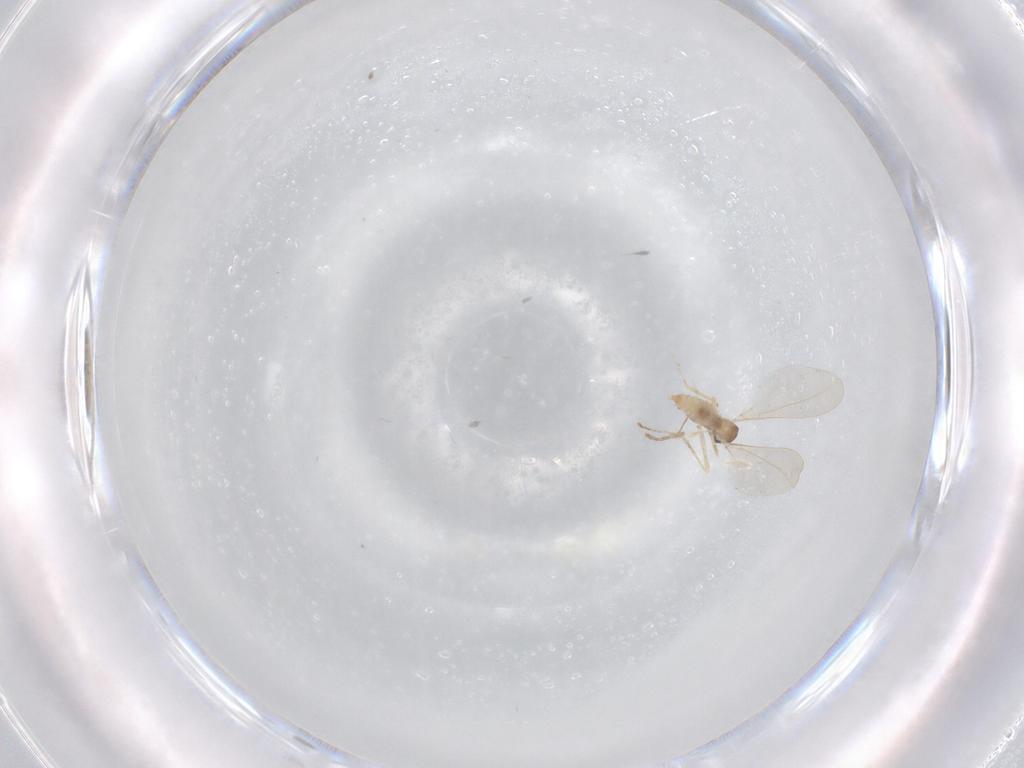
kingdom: Animalia
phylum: Arthropoda
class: Insecta
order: Diptera
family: Cecidomyiidae
